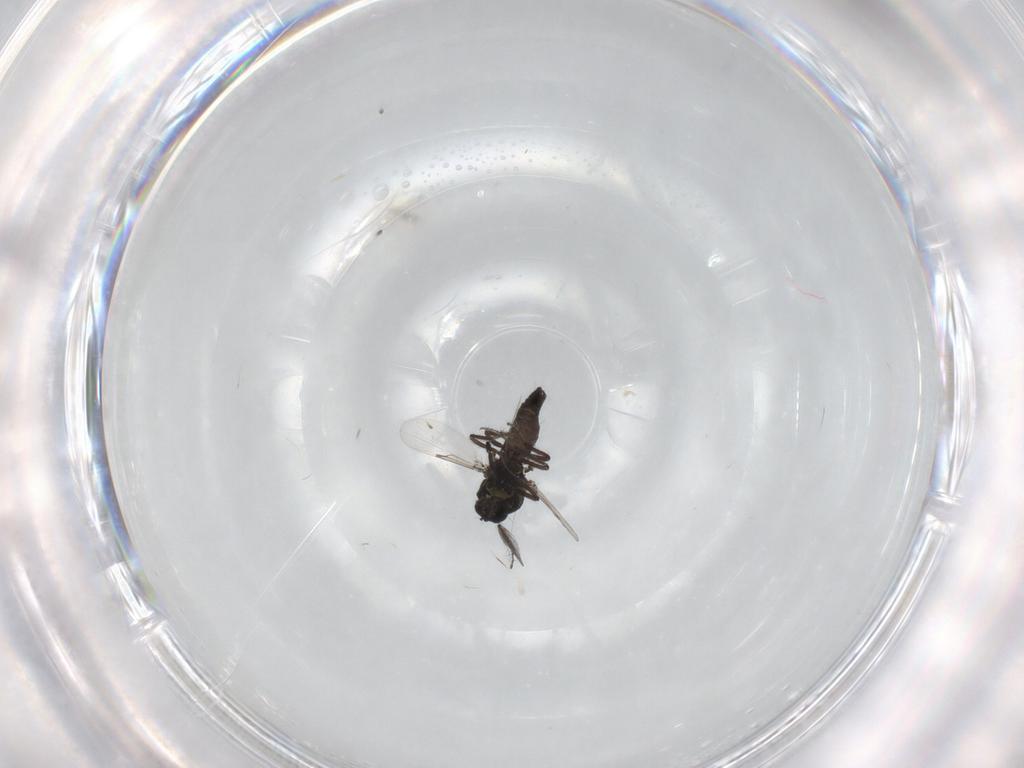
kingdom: Animalia
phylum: Arthropoda
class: Insecta
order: Diptera
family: Ceratopogonidae
